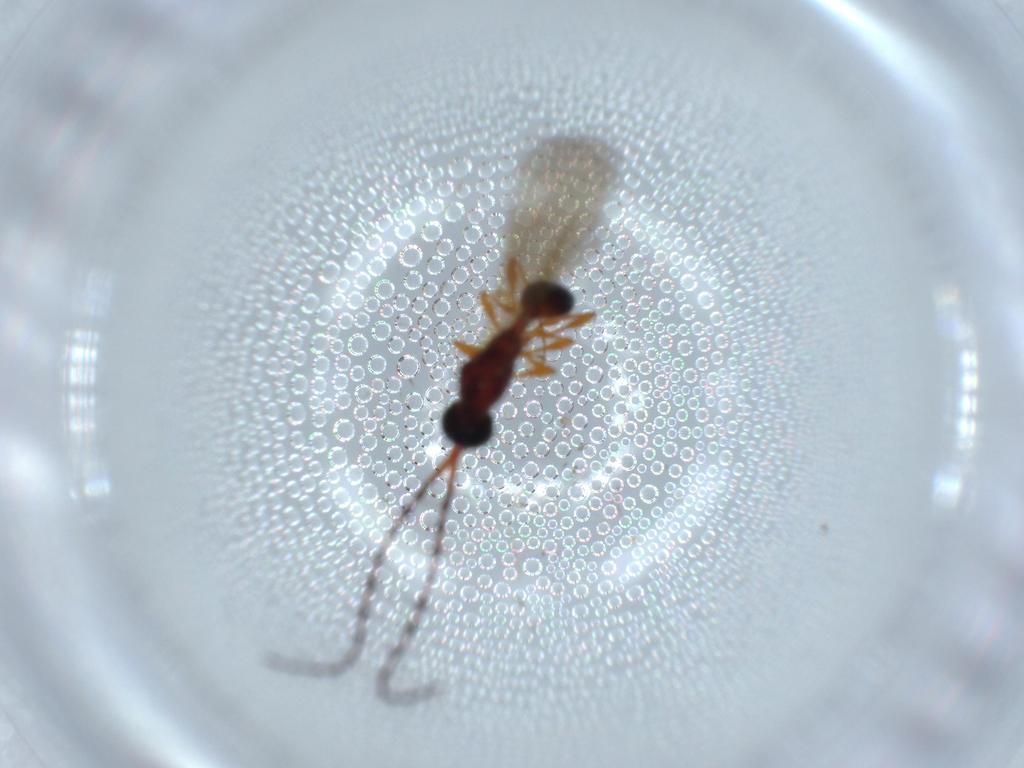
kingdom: Animalia
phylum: Arthropoda
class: Insecta
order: Hymenoptera
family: Diapriidae
